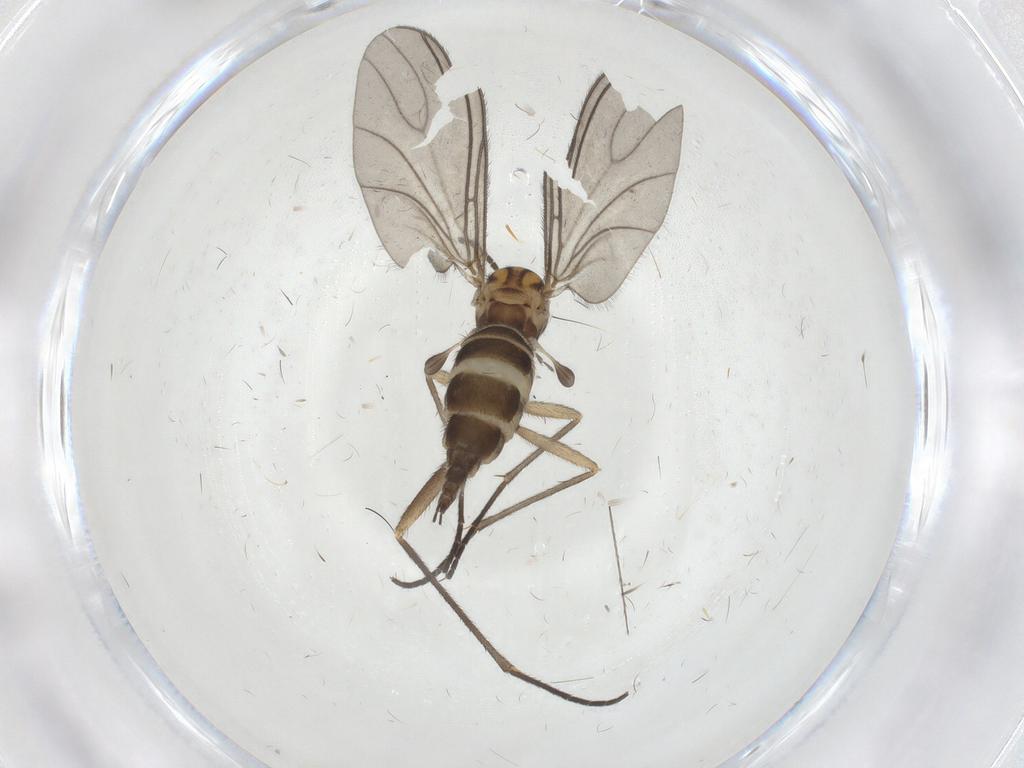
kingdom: Animalia
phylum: Arthropoda
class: Insecta
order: Diptera
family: Sciaridae
